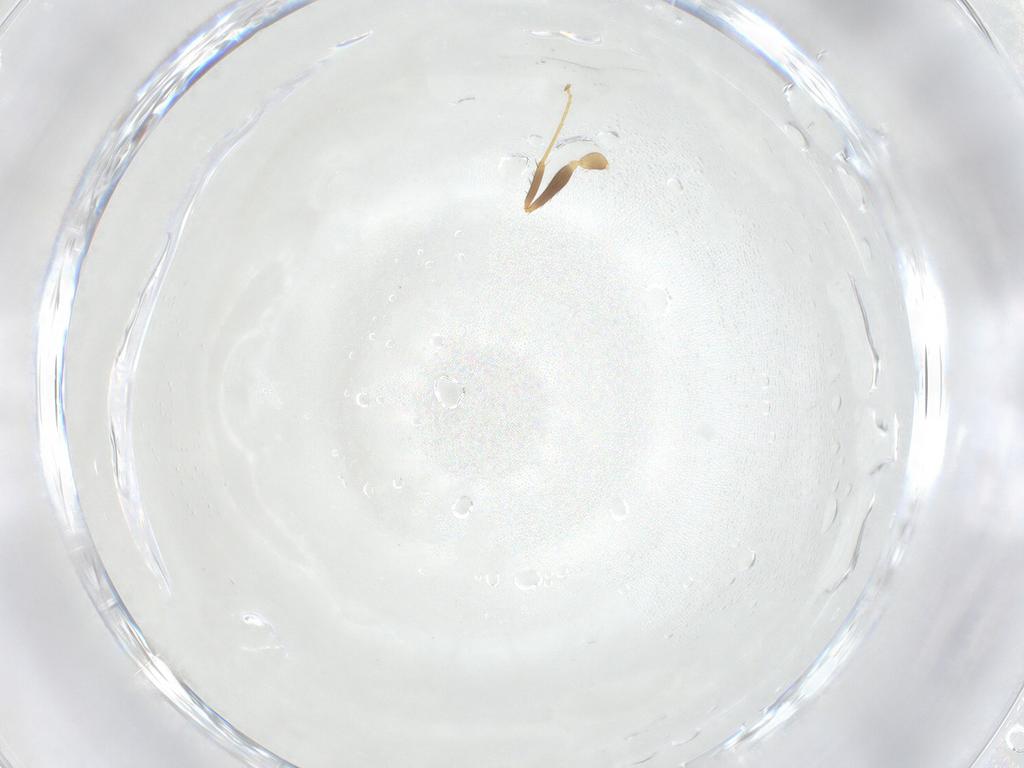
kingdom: Animalia
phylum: Arthropoda
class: Insecta
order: Hymenoptera
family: Formicidae
